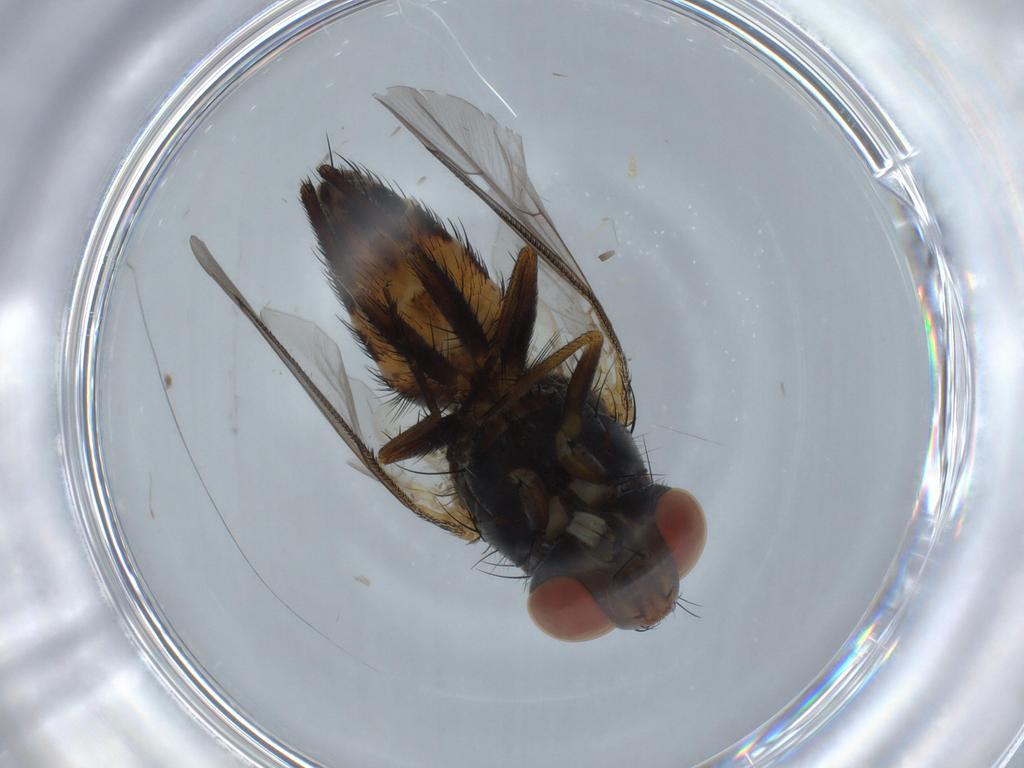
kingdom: Animalia
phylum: Arthropoda
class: Insecta
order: Diptera
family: Sarcophagidae
